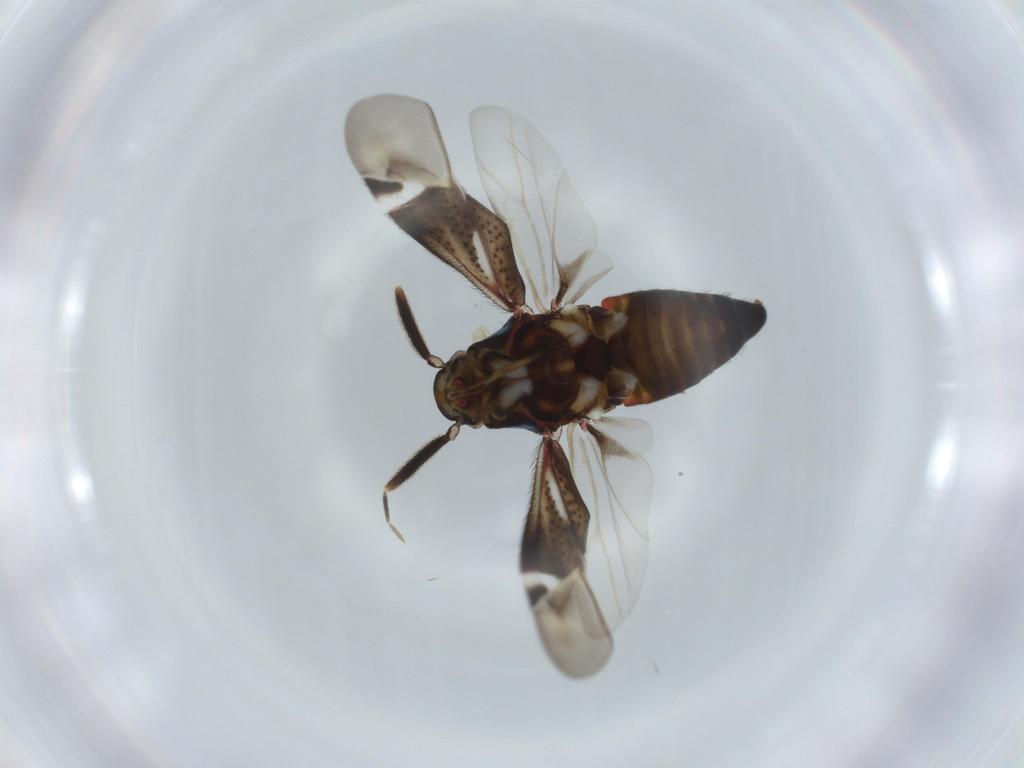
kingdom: Animalia
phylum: Arthropoda
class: Insecta
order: Hemiptera
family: Miridae
